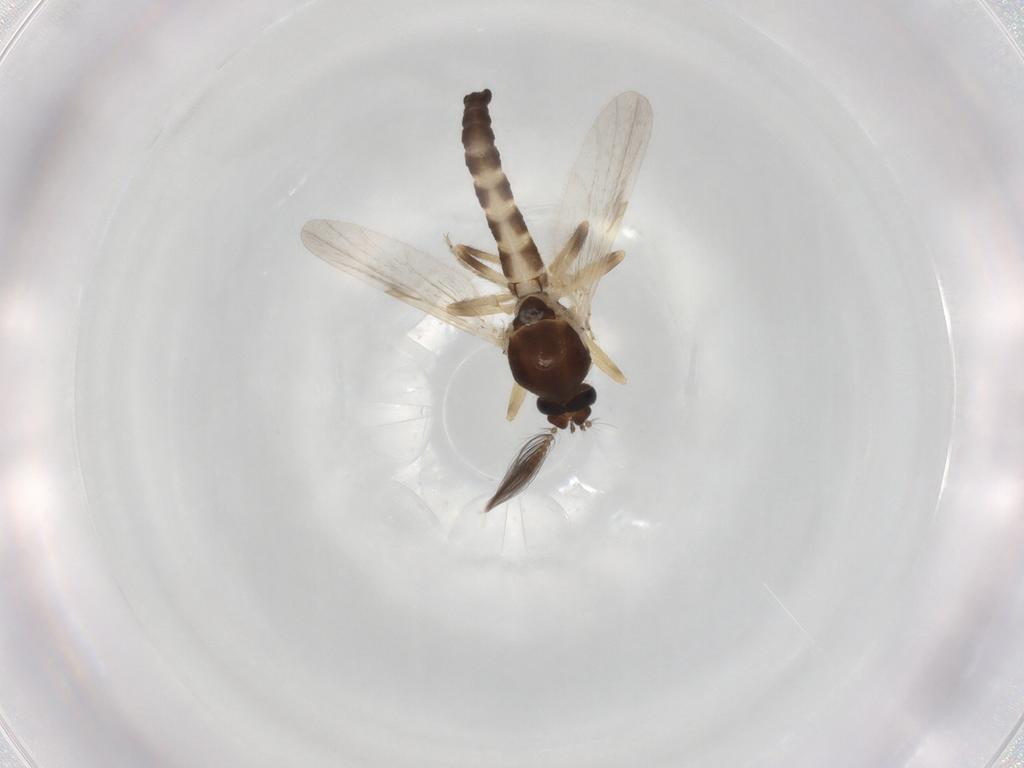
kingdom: Animalia
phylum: Arthropoda
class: Insecta
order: Diptera
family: Ceratopogonidae
